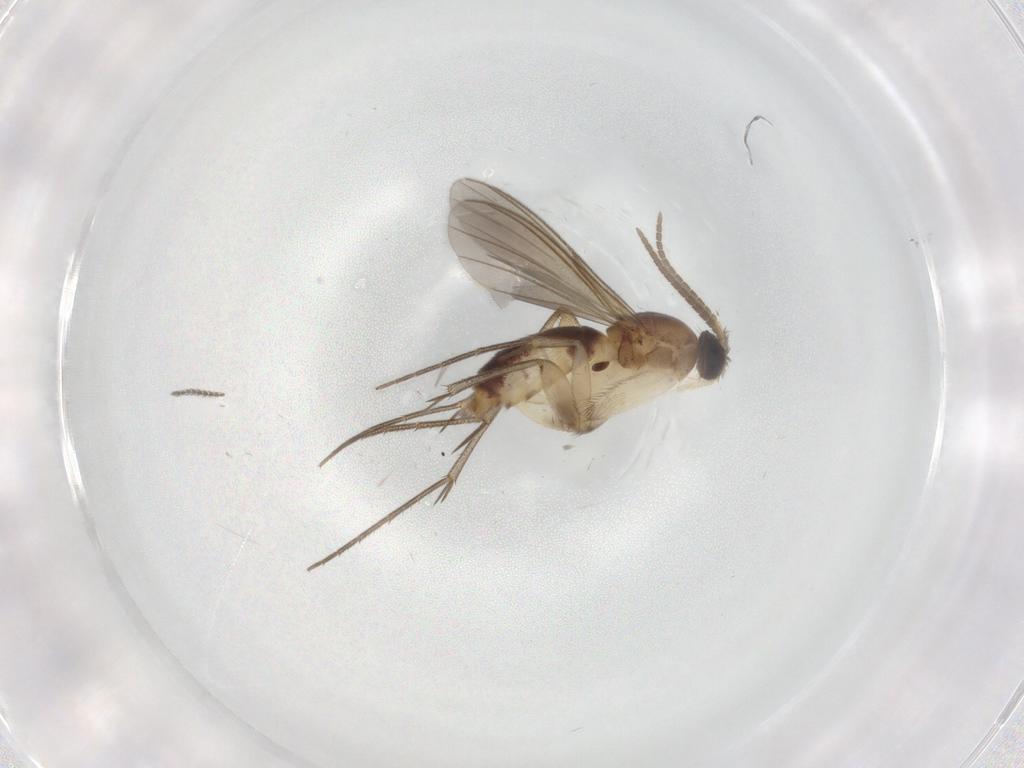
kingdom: Animalia
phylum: Arthropoda
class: Insecta
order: Diptera
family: Mycetophilidae
